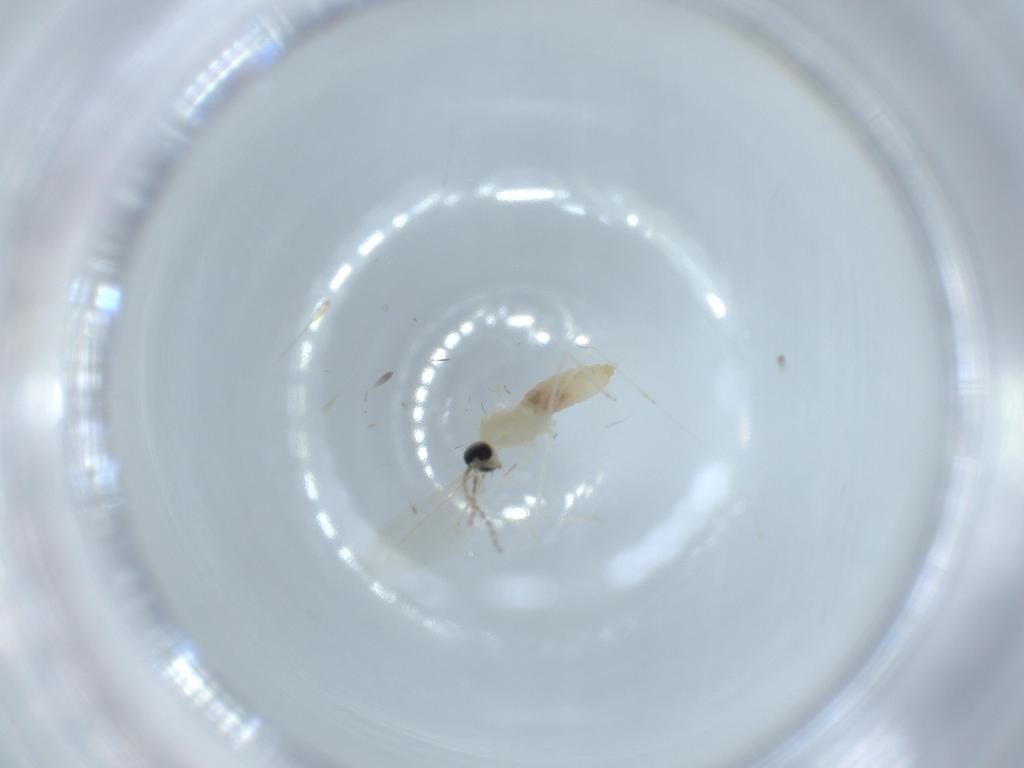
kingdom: Animalia
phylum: Arthropoda
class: Insecta
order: Diptera
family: Cecidomyiidae
